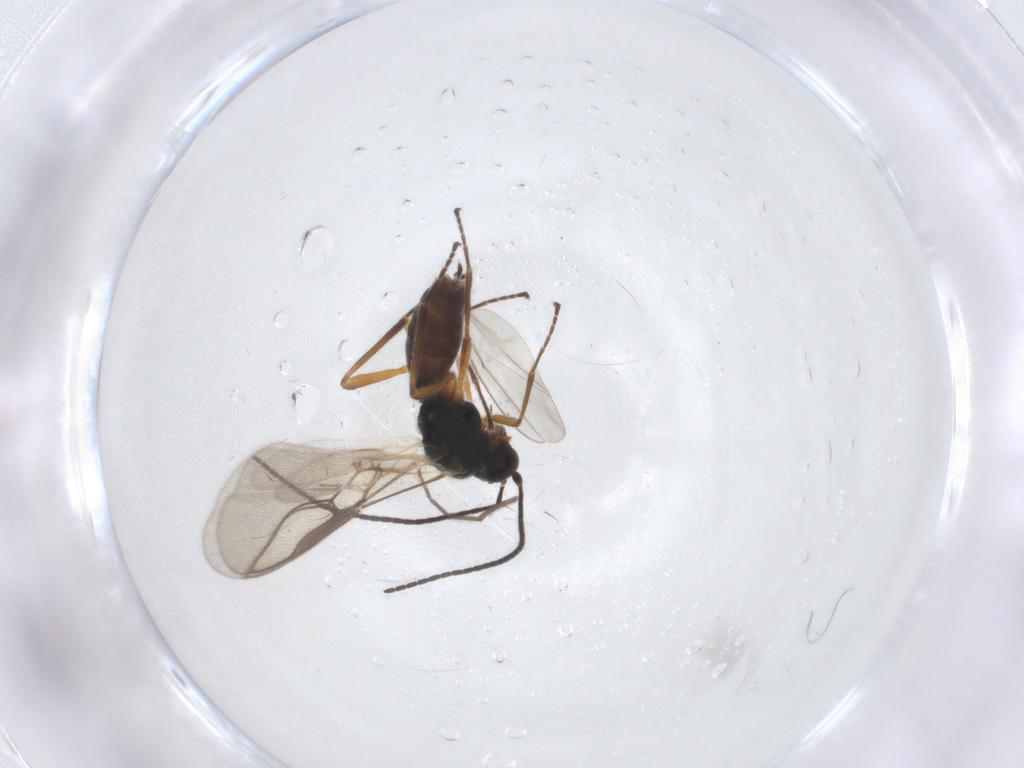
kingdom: Animalia
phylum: Arthropoda
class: Insecta
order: Hymenoptera
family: Braconidae
